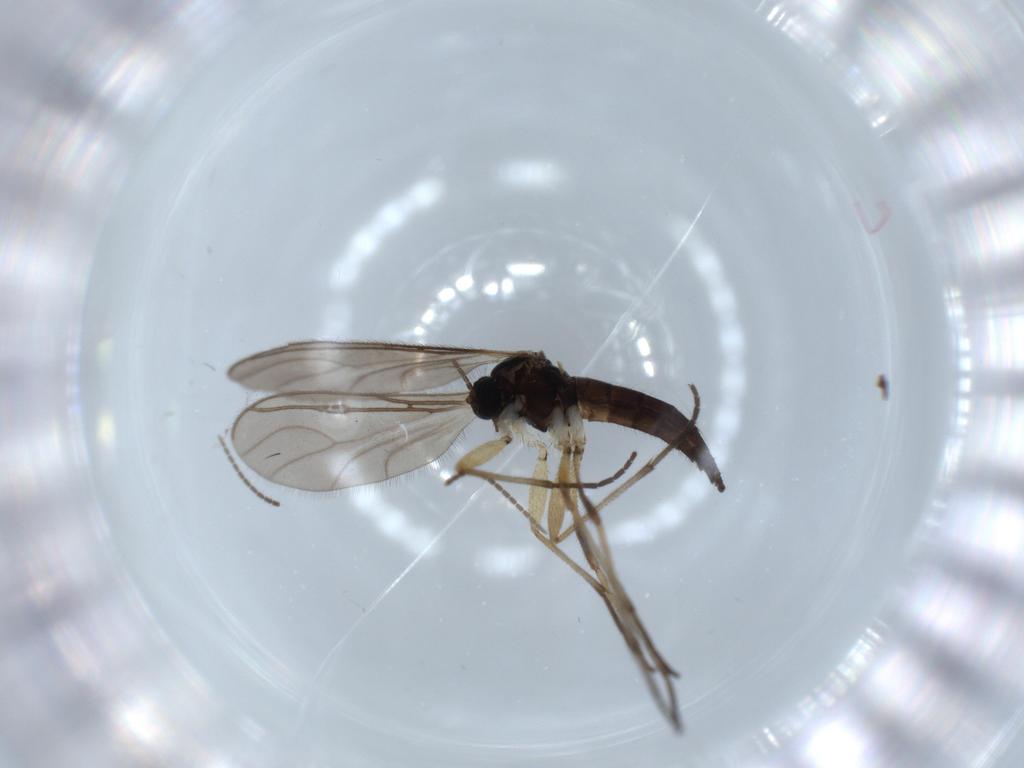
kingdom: Animalia
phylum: Arthropoda
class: Insecta
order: Diptera
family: Sciaridae
